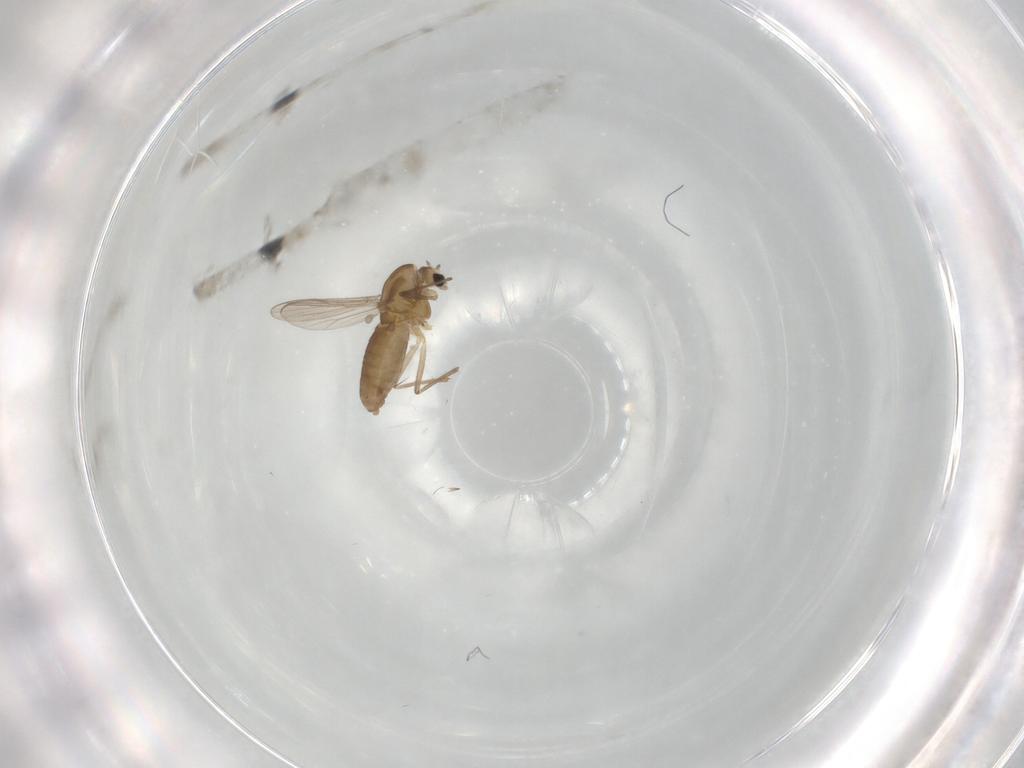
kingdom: Animalia
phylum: Arthropoda
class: Insecta
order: Diptera
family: Chironomidae
